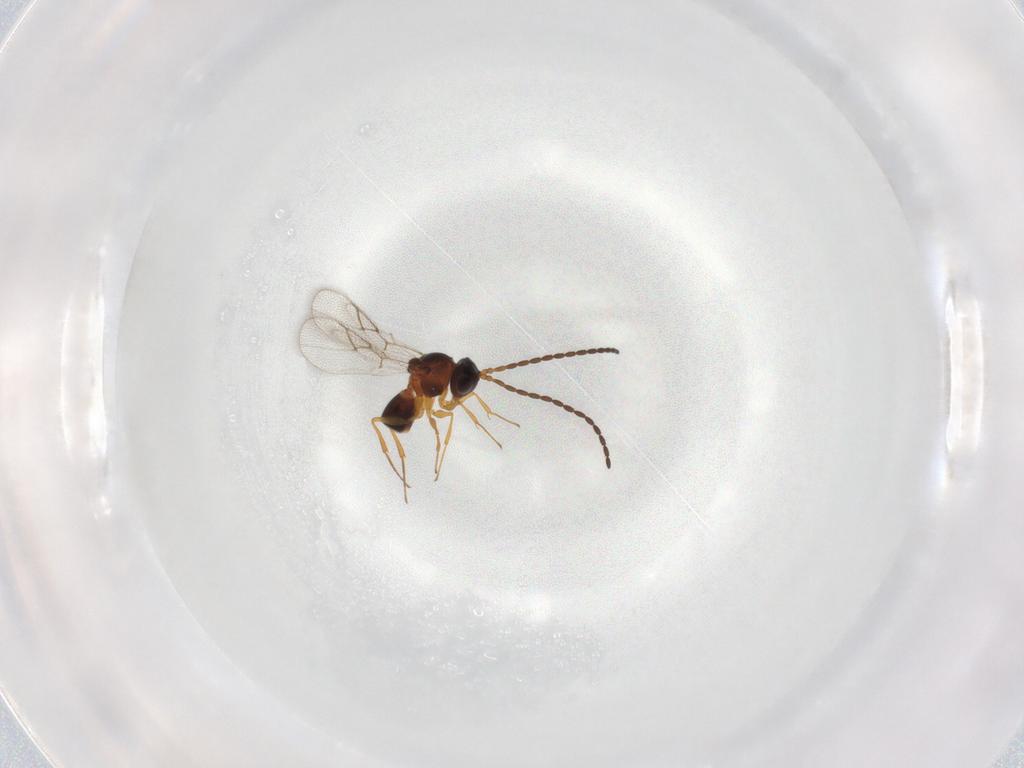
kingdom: Animalia
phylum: Arthropoda
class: Insecta
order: Hymenoptera
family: Figitidae
